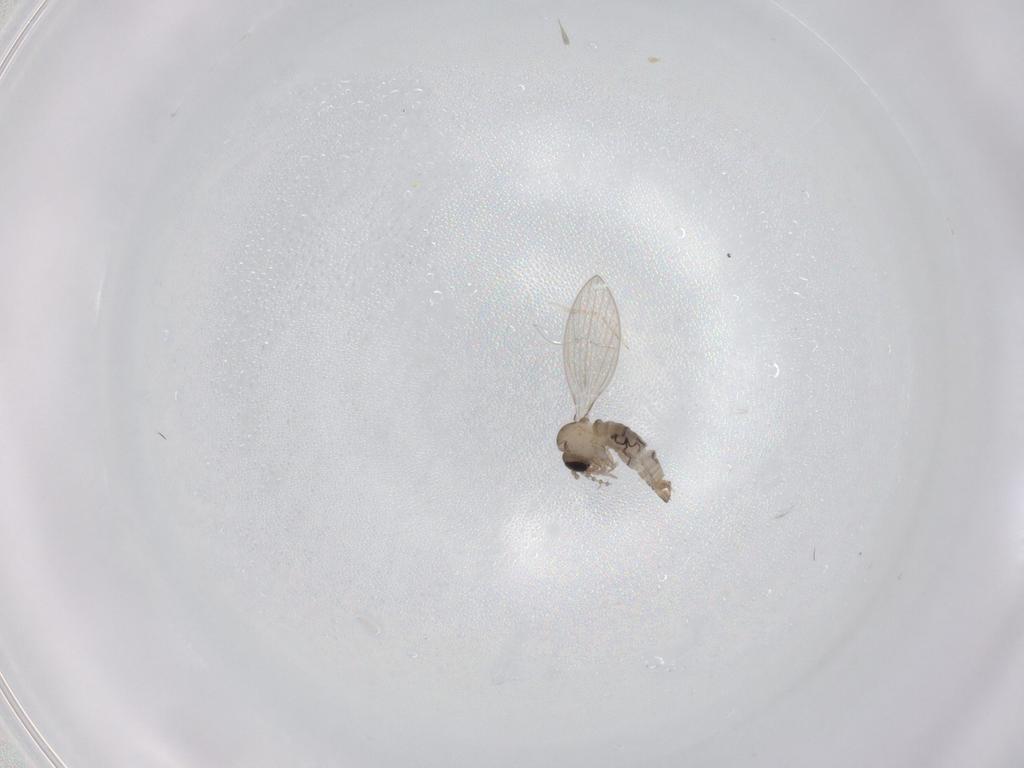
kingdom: Animalia
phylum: Arthropoda
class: Insecta
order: Diptera
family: Psychodidae
